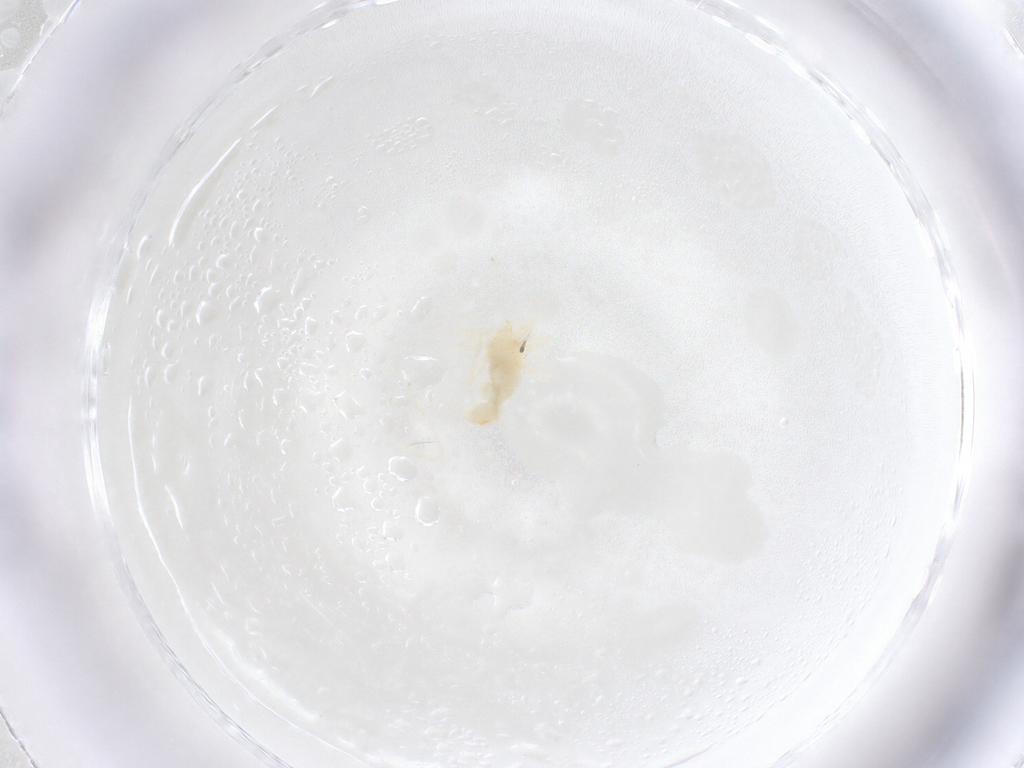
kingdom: Animalia
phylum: Arthropoda
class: Arachnida
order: Trombidiformes
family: Anystidae
